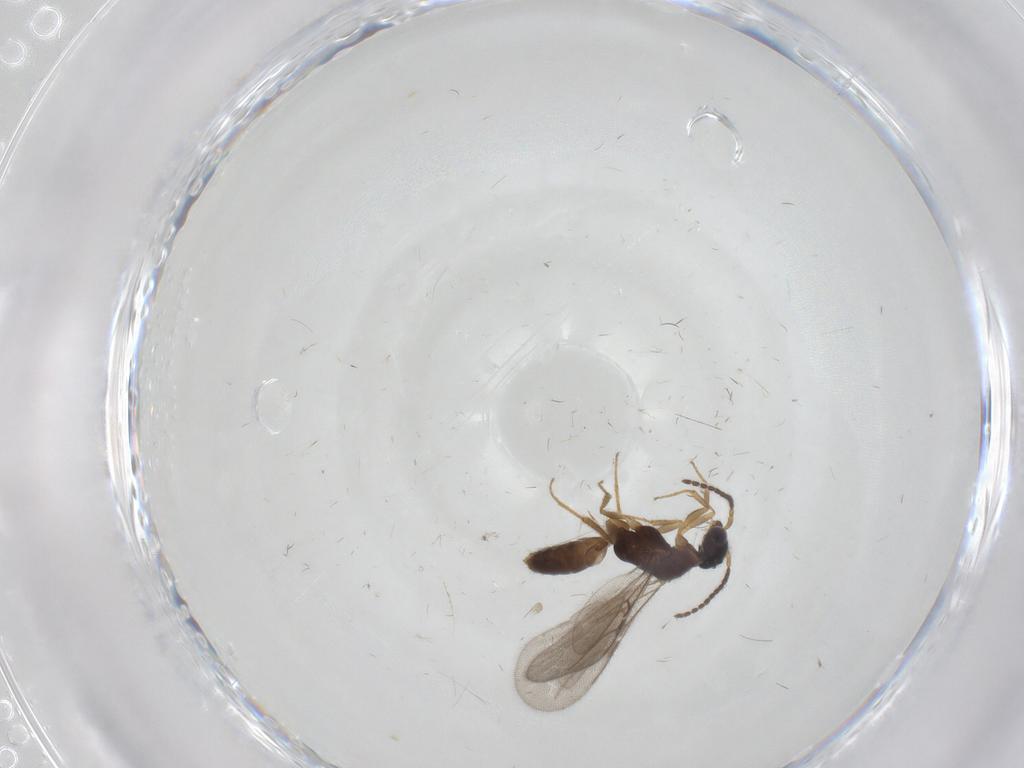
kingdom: Animalia
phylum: Arthropoda
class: Insecta
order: Hymenoptera
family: Bethylidae
